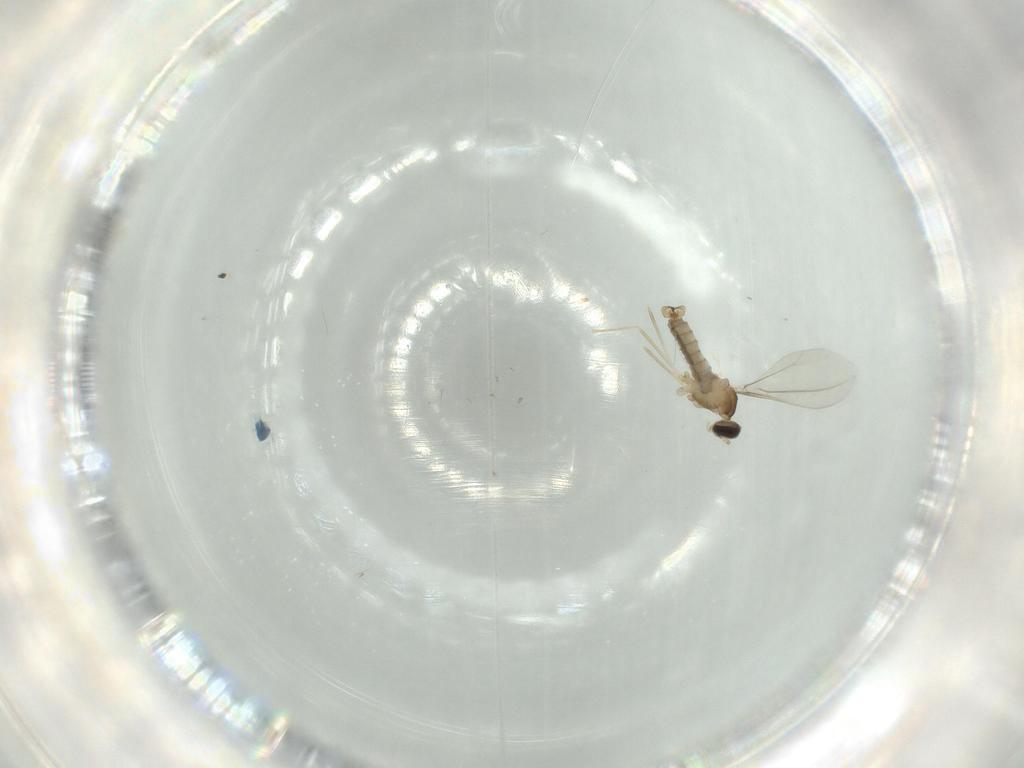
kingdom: Animalia
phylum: Arthropoda
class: Insecta
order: Diptera
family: Cecidomyiidae
